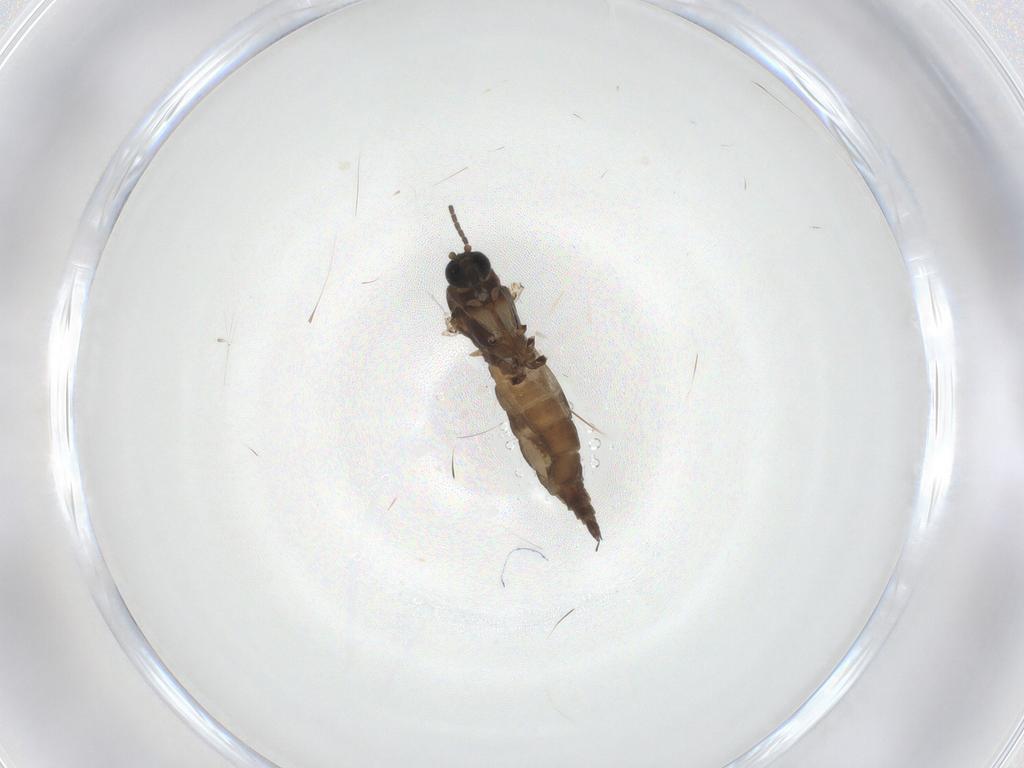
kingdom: Animalia
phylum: Arthropoda
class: Insecta
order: Diptera
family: Sciaridae
